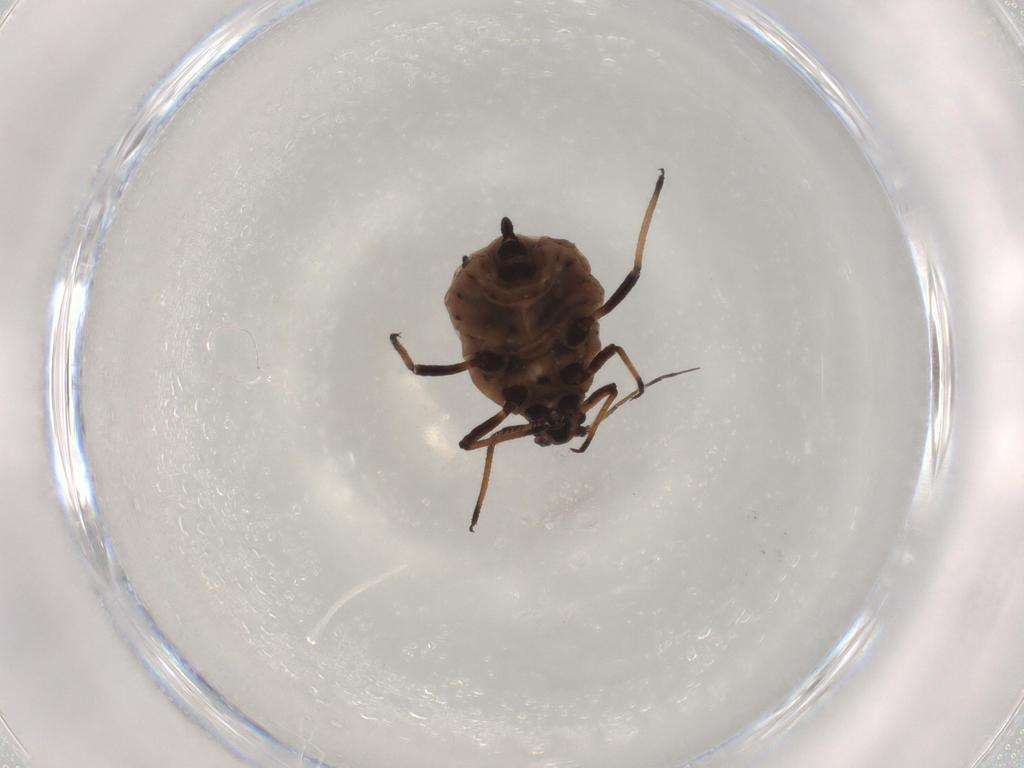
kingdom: Animalia
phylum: Arthropoda
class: Insecta
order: Hemiptera
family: Aphididae
